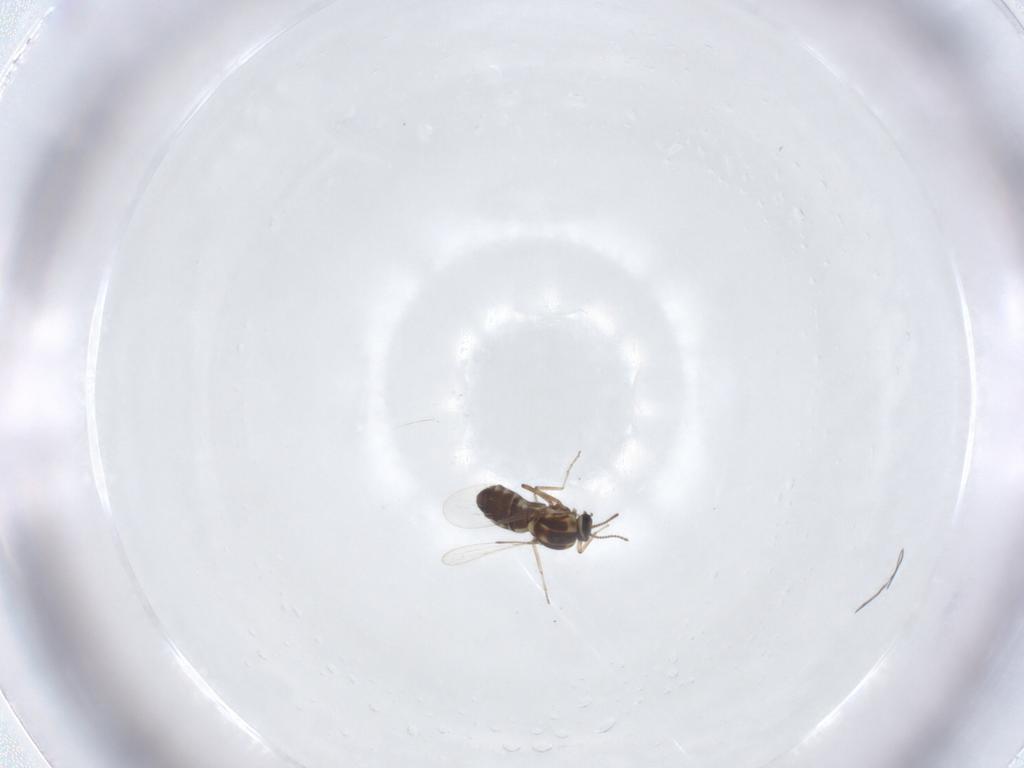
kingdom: Animalia
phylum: Arthropoda
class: Insecta
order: Diptera
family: Ceratopogonidae
